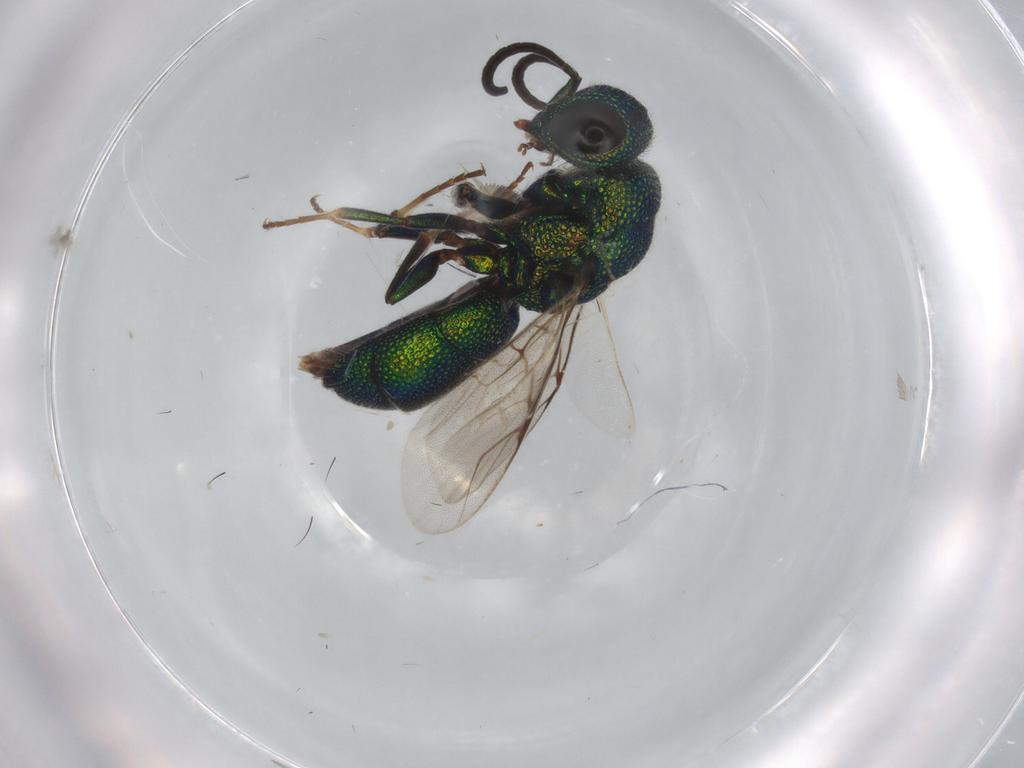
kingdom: Animalia
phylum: Arthropoda
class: Insecta
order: Hymenoptera
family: Chrysididae
